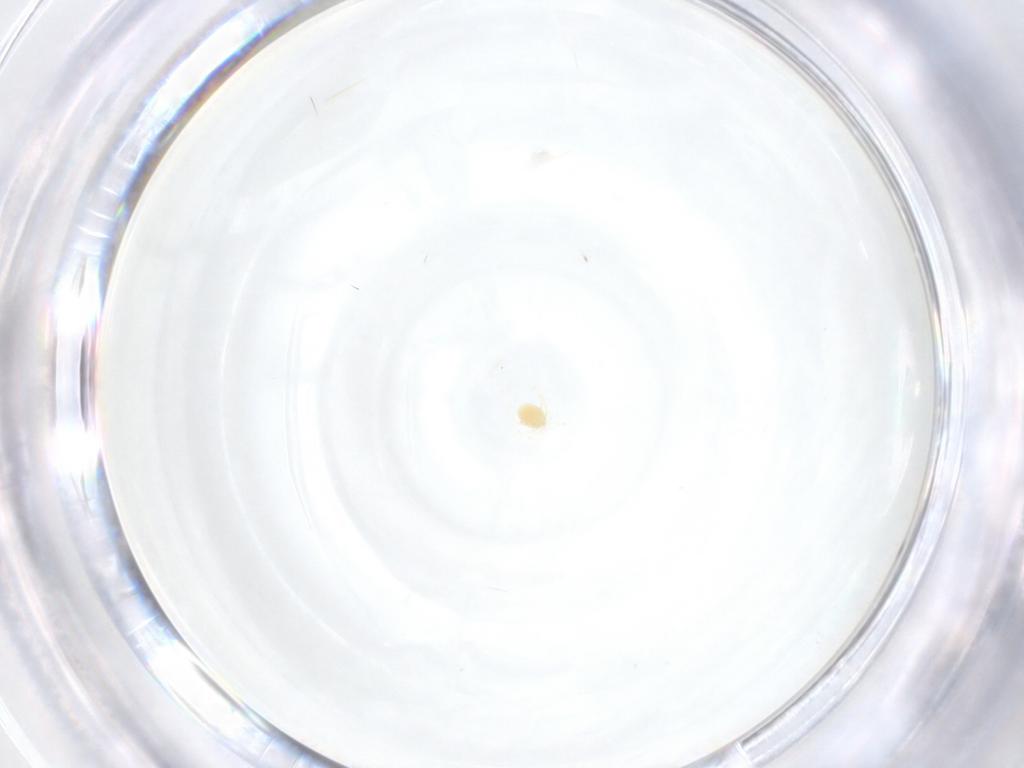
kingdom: Animalia
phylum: Arthropoda
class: Arachnida
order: Trombidiformes
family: Torrenticolidae
